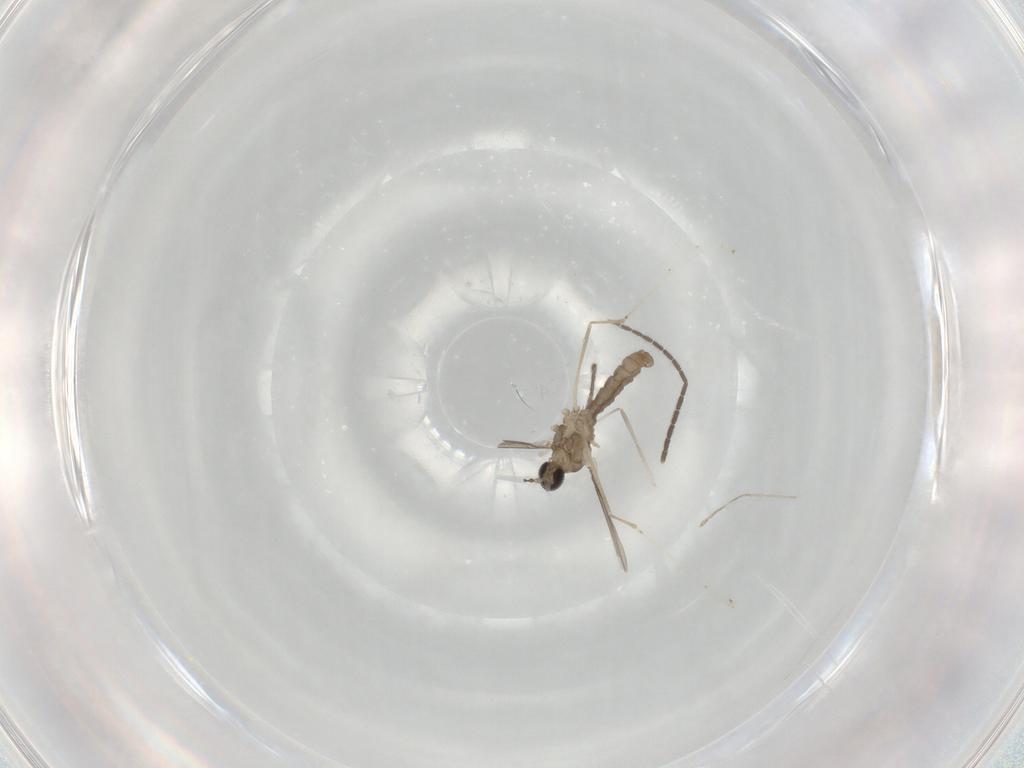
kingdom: Animalia
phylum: Arthropoda
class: Insecta
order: Diptera
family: Cecidomyiidae
